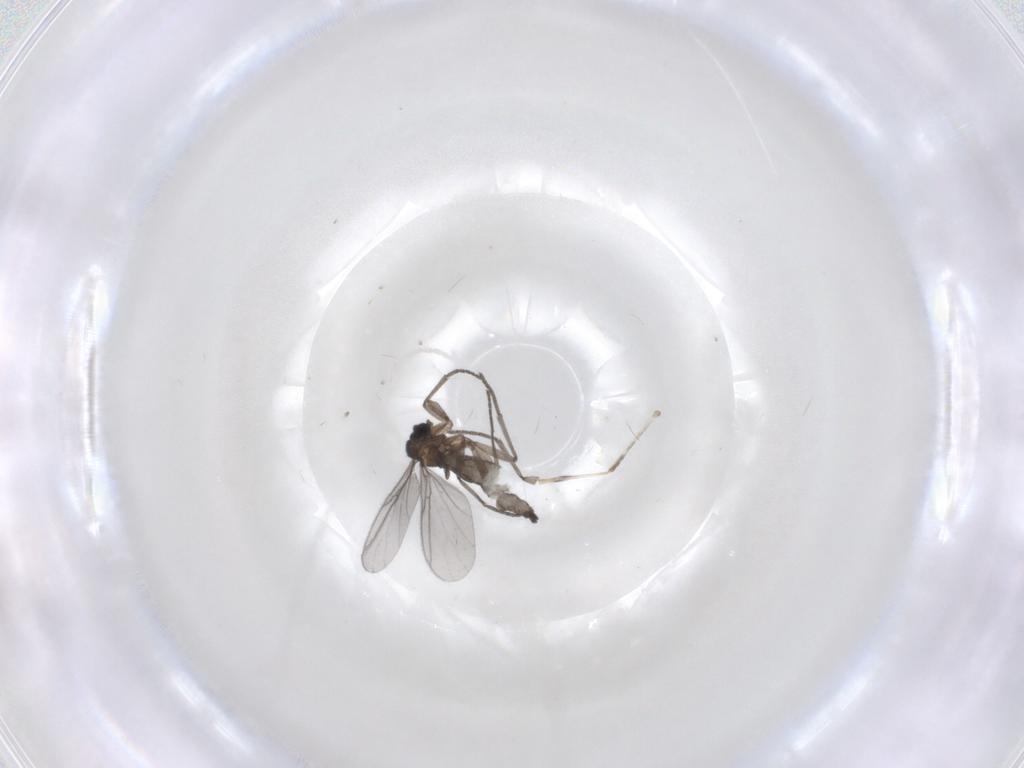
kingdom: Animalia
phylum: Arthropoda
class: Insecta
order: Diptera
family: Cecidomyiidae
